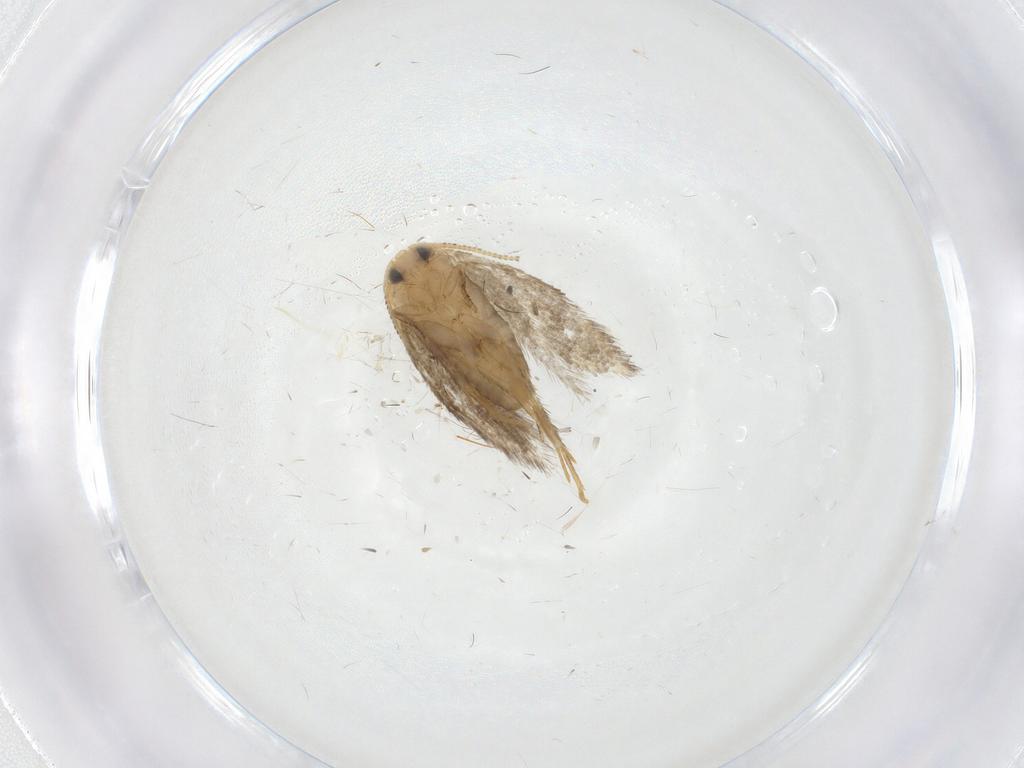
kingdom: Animalia
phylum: Arthropoda
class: Insecta
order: Lepidoptera
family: Nepticulidae
